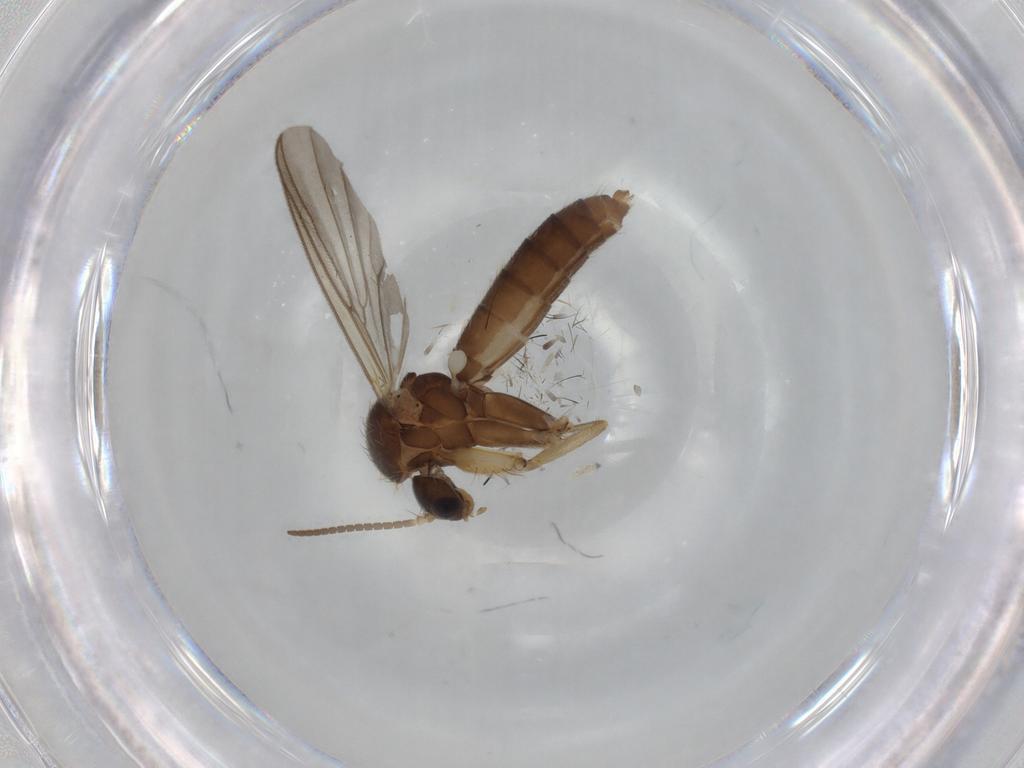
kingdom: Animalia
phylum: Arthropoda
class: Insecta
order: Diptera
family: Mycetophilidae
